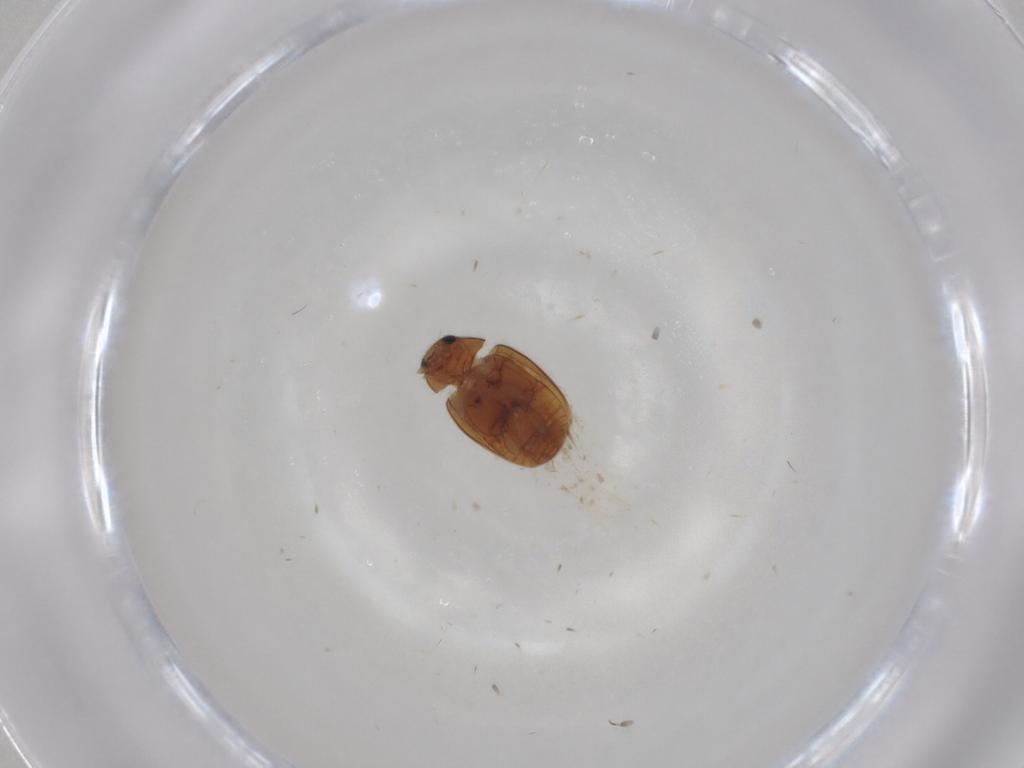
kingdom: Animalia
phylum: Arthropoda
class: Insecta
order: Coleoptera
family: Coccinellidae
